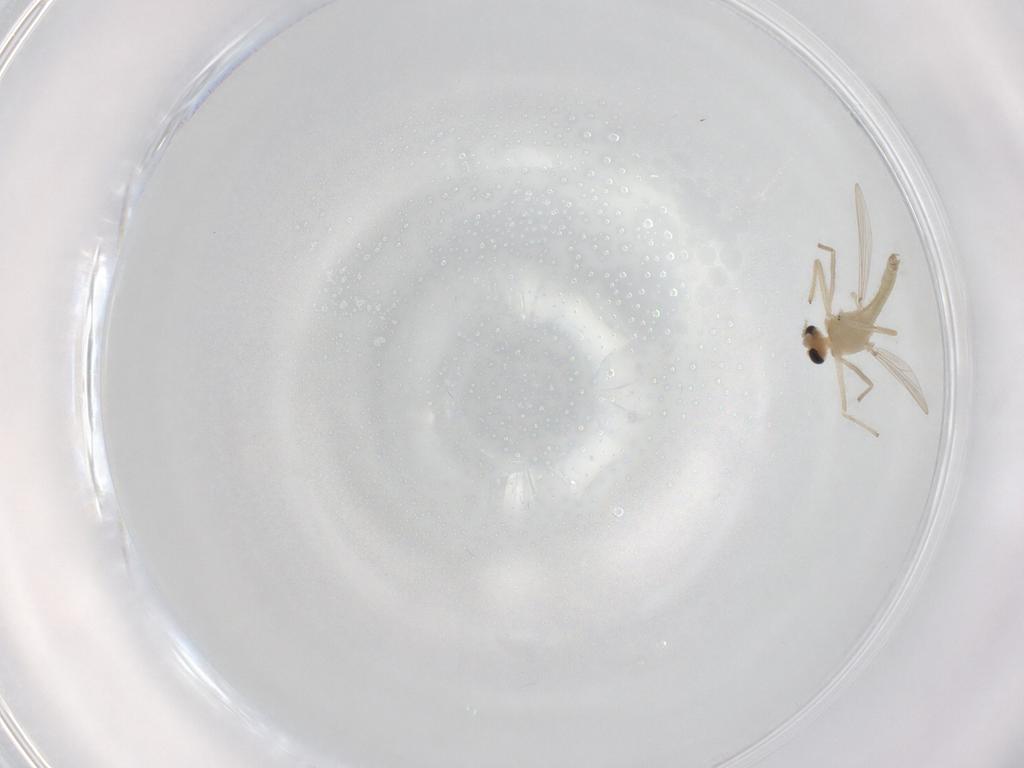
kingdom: Animalia
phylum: Arthropoda
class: Insecta
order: Diptera
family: Chironomidae
